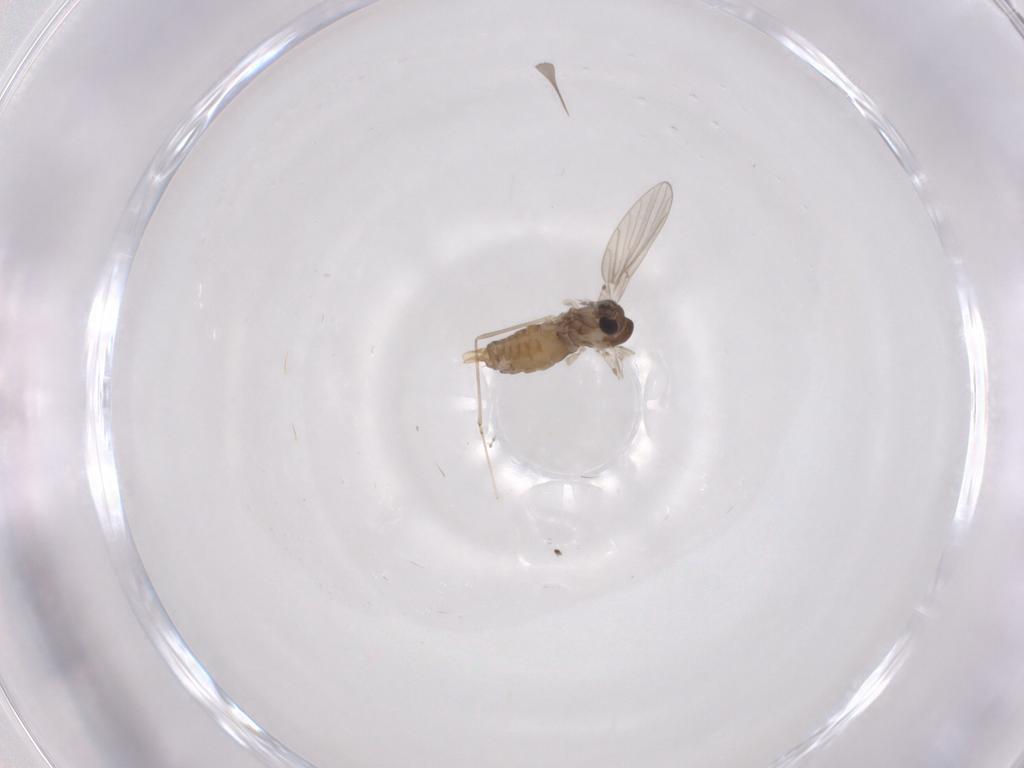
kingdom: Animalia
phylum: Arthropoda
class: Insecta
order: Diptera
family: Psychodidae
